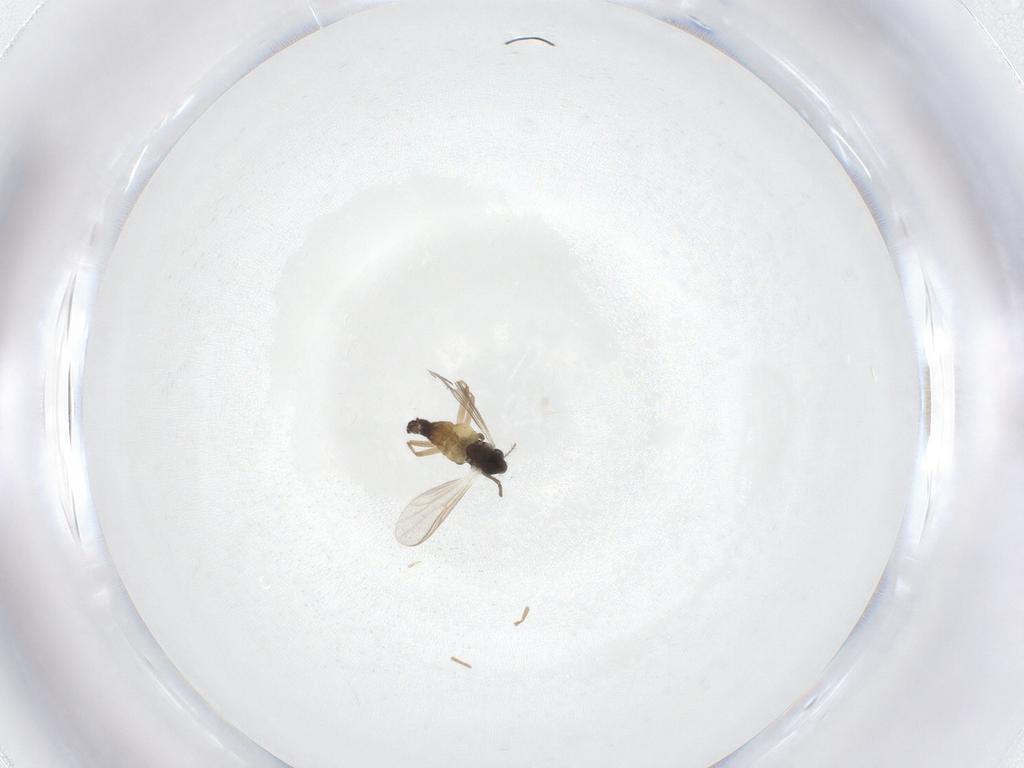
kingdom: Animalia
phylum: Arthropoda
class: Insecta
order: Diptera
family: Chironomidae
